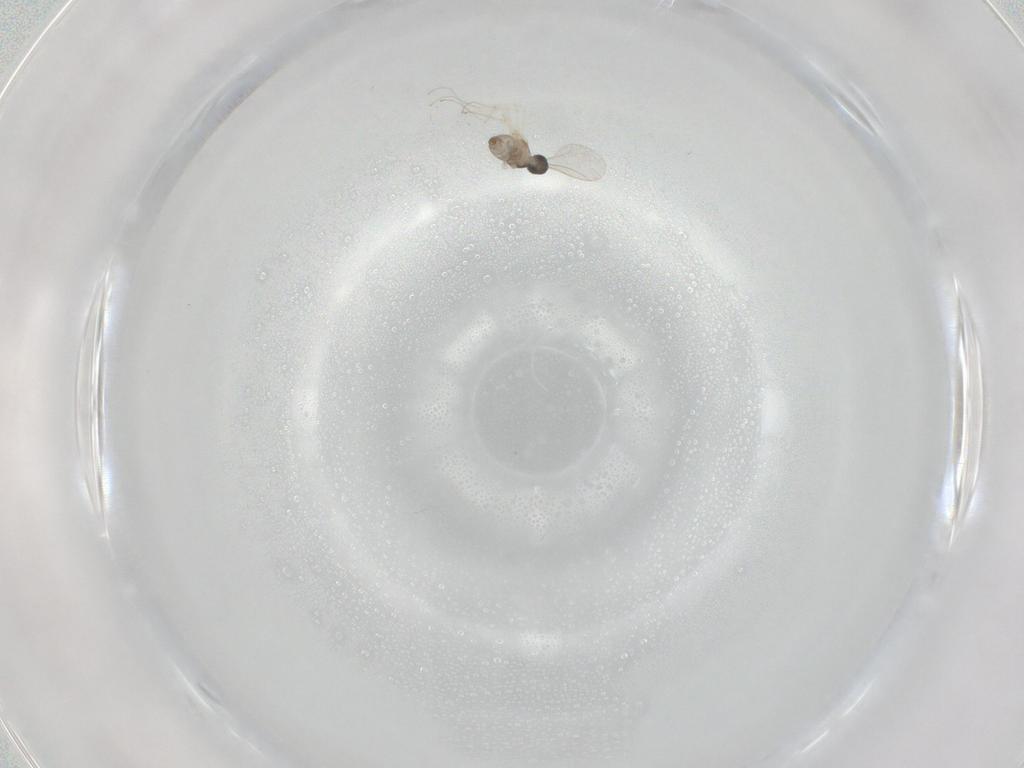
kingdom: Animalia
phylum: Arthropoda
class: Insecta
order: Diptera
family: Cecidomyiidae
